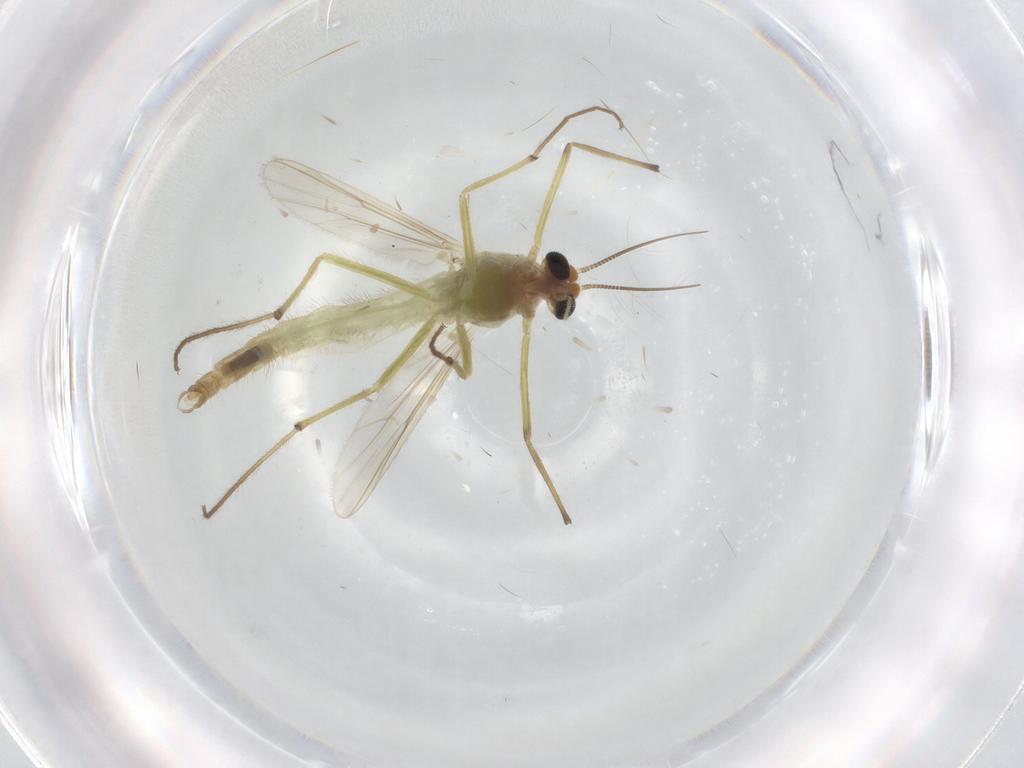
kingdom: Animalia
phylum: Arthropoda
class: Insecta
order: Diptera
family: Chironomidae
